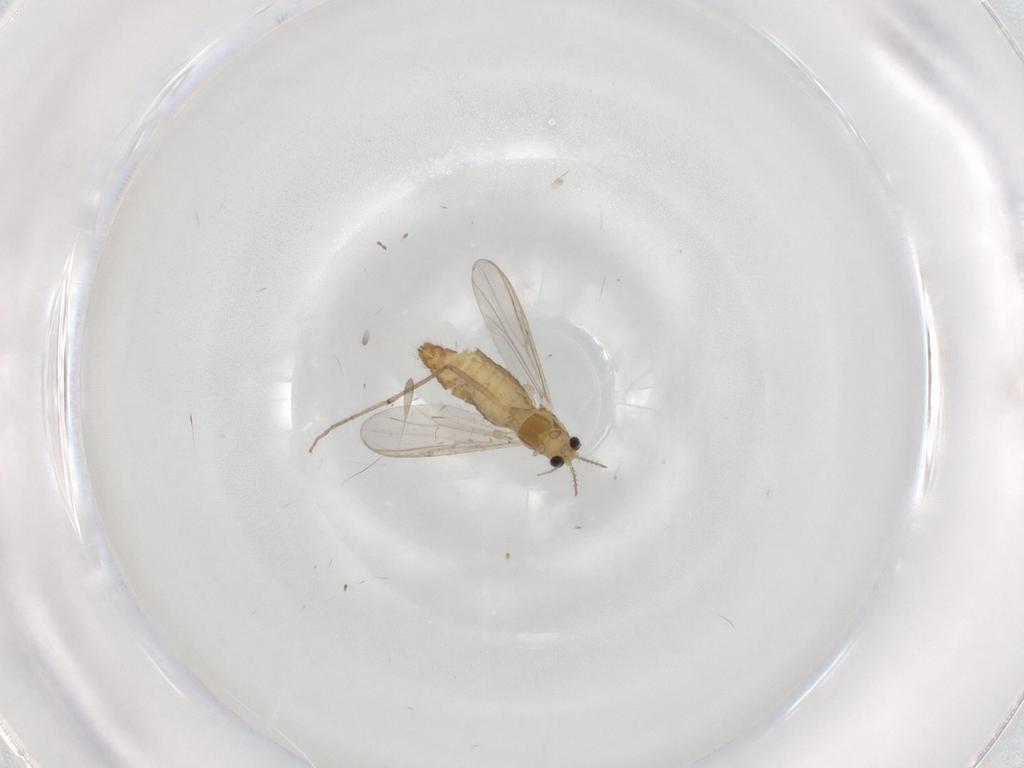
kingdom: Animalia
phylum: Arthropoda
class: Insecta
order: Diptera
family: Chironomidae
